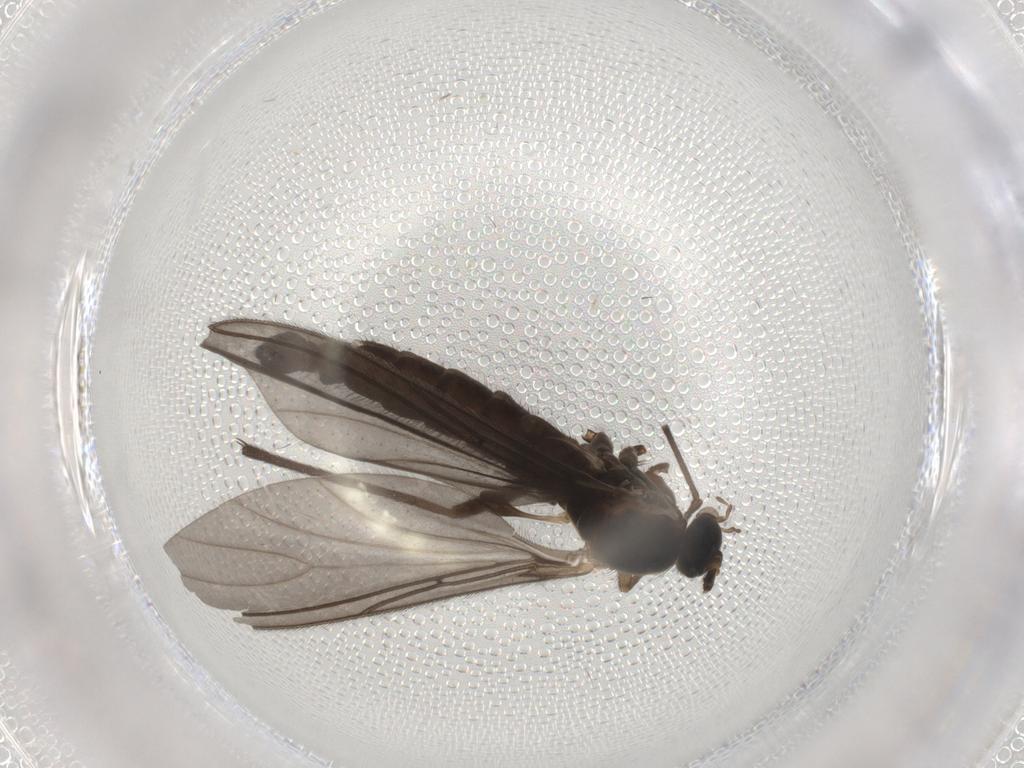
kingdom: Animalia
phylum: Arthropoda
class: Insecta
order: Diptera
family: Sciaridae
